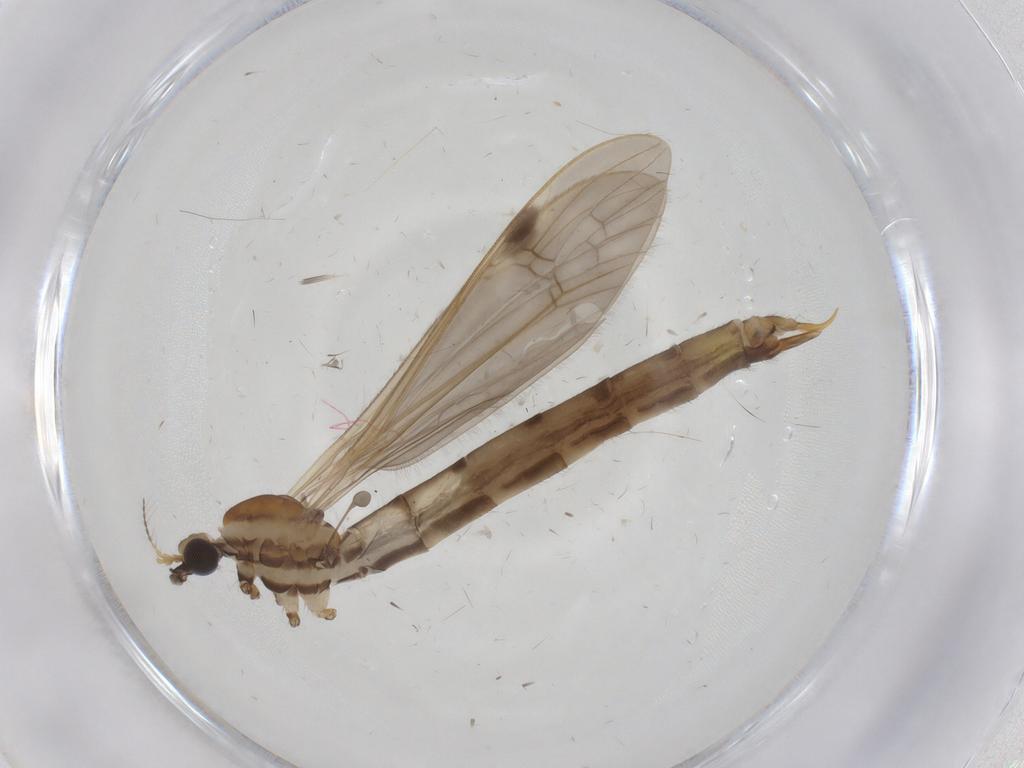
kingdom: Animalia
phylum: Arthropoda
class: Insecta
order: Diptera
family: Limoniidae
